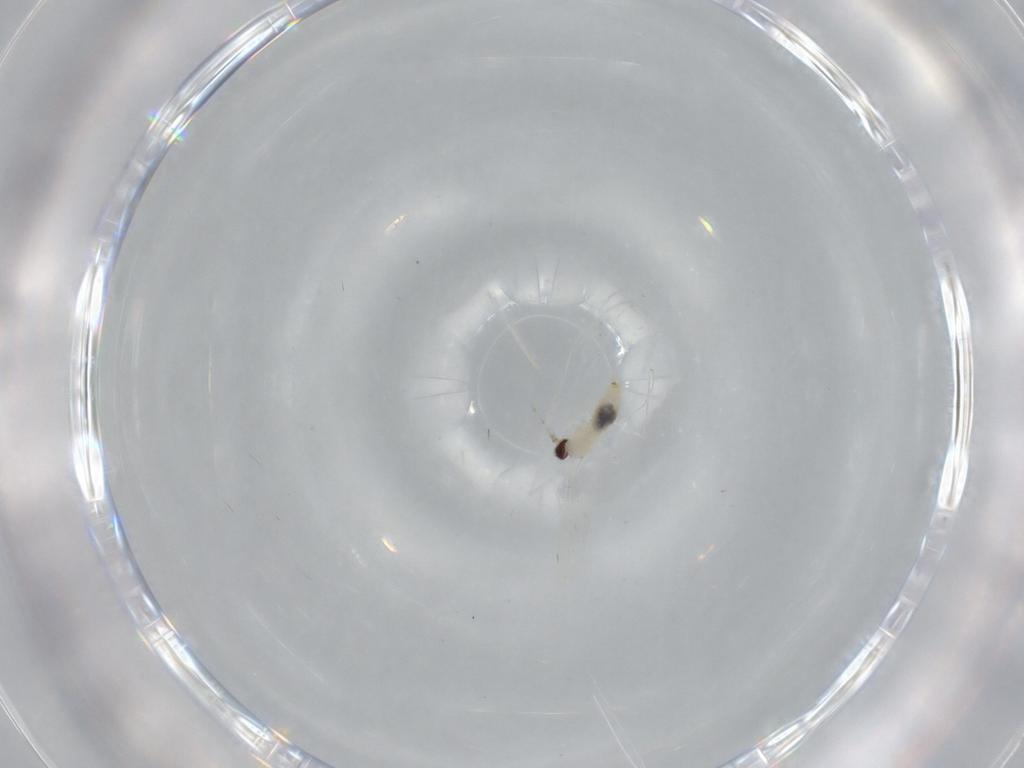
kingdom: Animalia
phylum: Arthropoda
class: Insecta
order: Diptera
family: Cecidomyiidae
